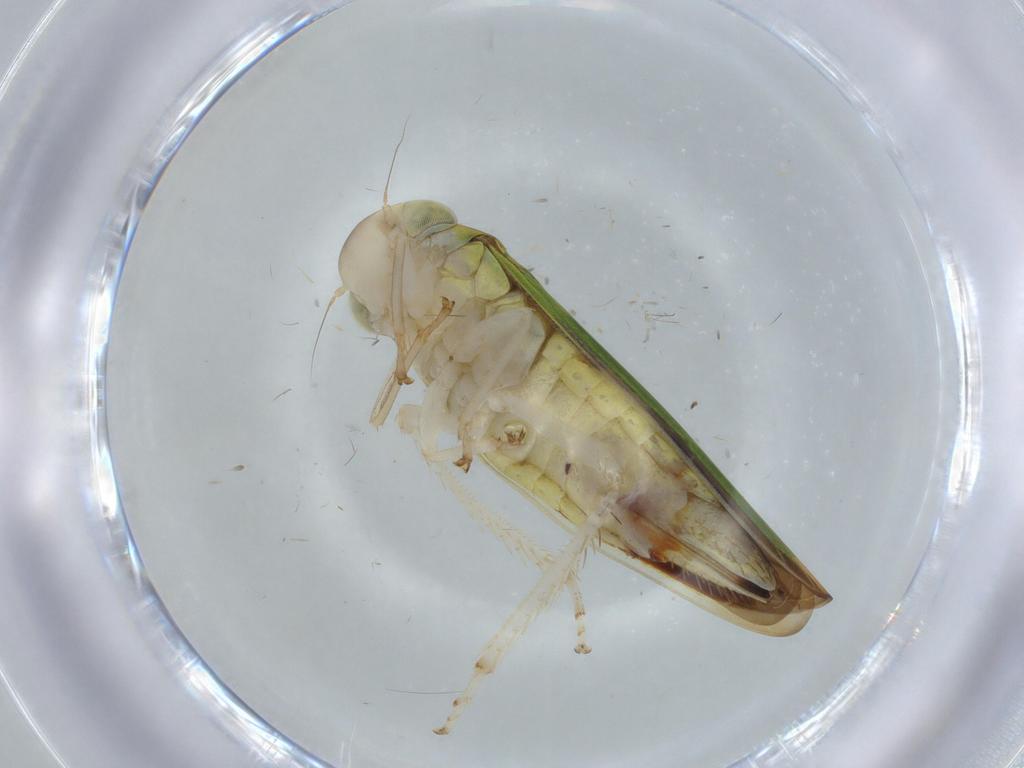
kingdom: Animalia
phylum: Arthropoda
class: Insecta
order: Hemiptera
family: Cicadellidae
